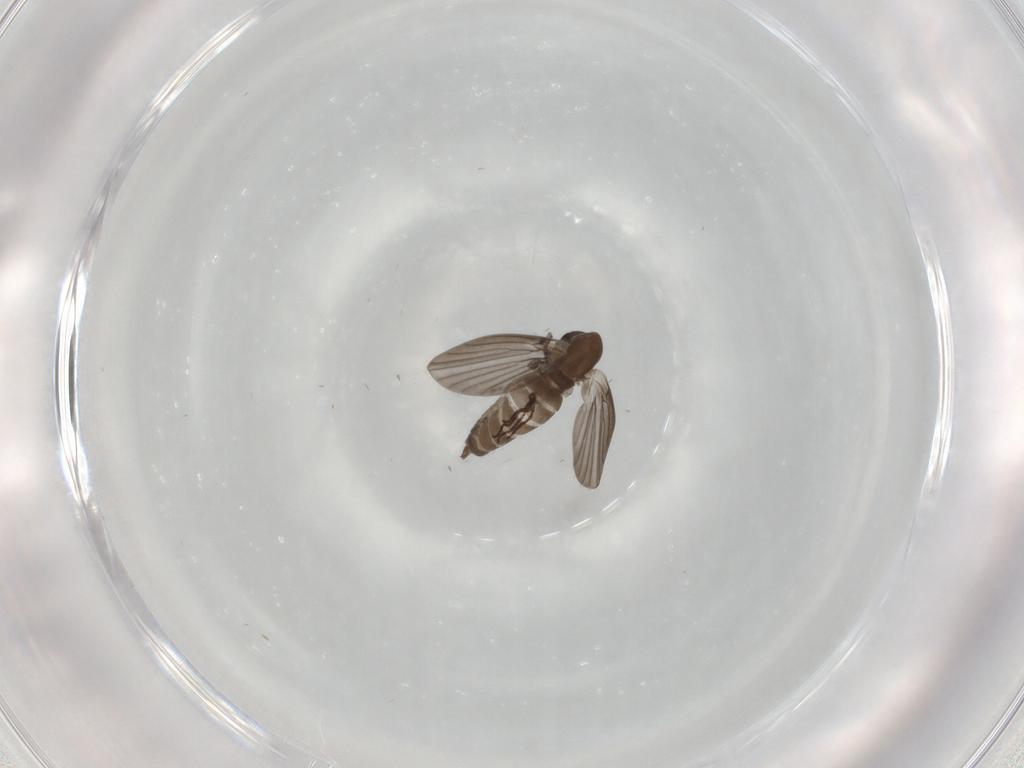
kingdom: Animalia
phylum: Arthropoda
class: Insecta
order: Diptera
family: Psychodidae
